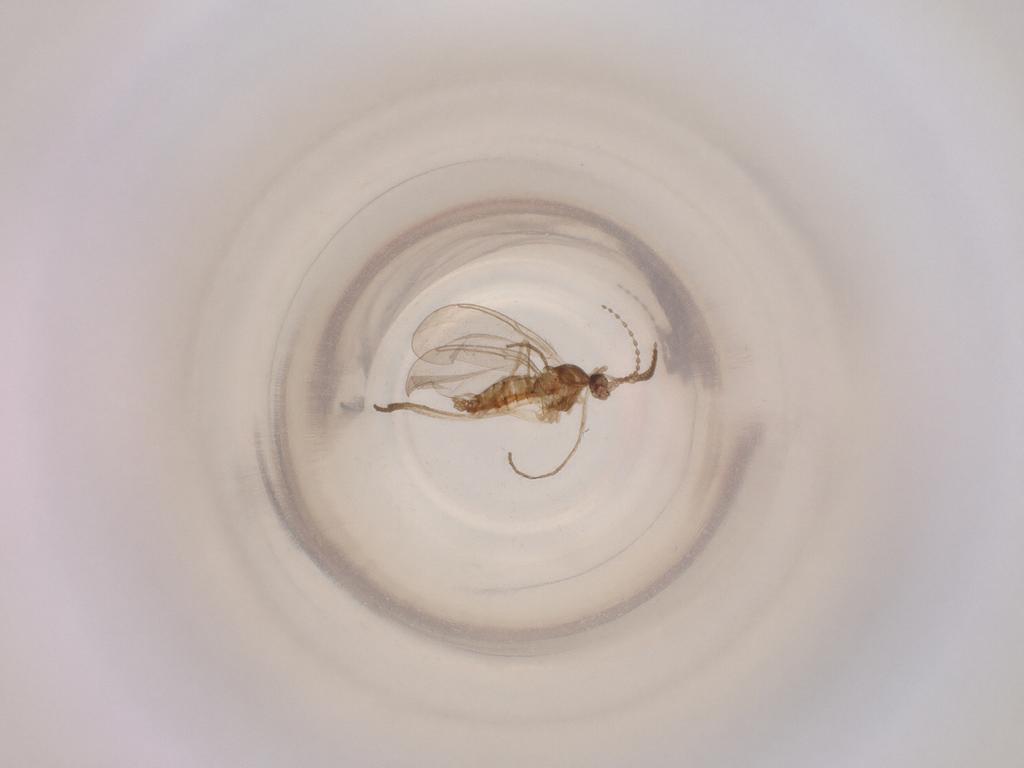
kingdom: Animalia
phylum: Arthropoda
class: Insecta
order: Diptera
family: Cecidomyiidae
